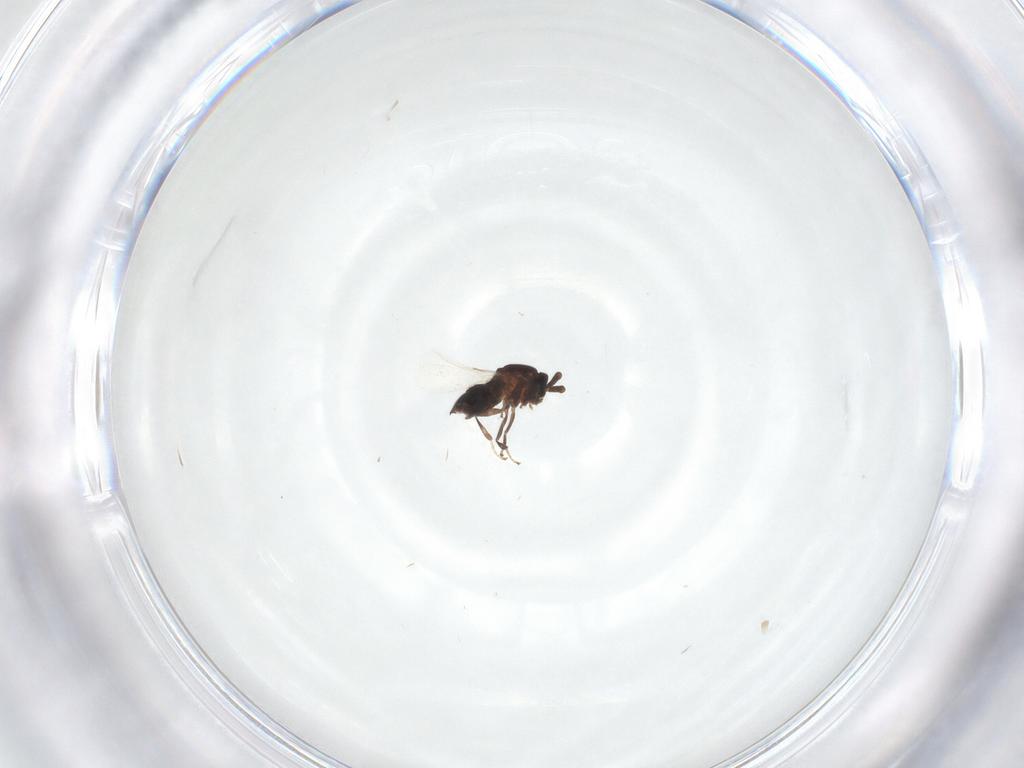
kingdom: Animalia
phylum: Arthropoda
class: Insecta
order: Diptera
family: Scatopsidae
